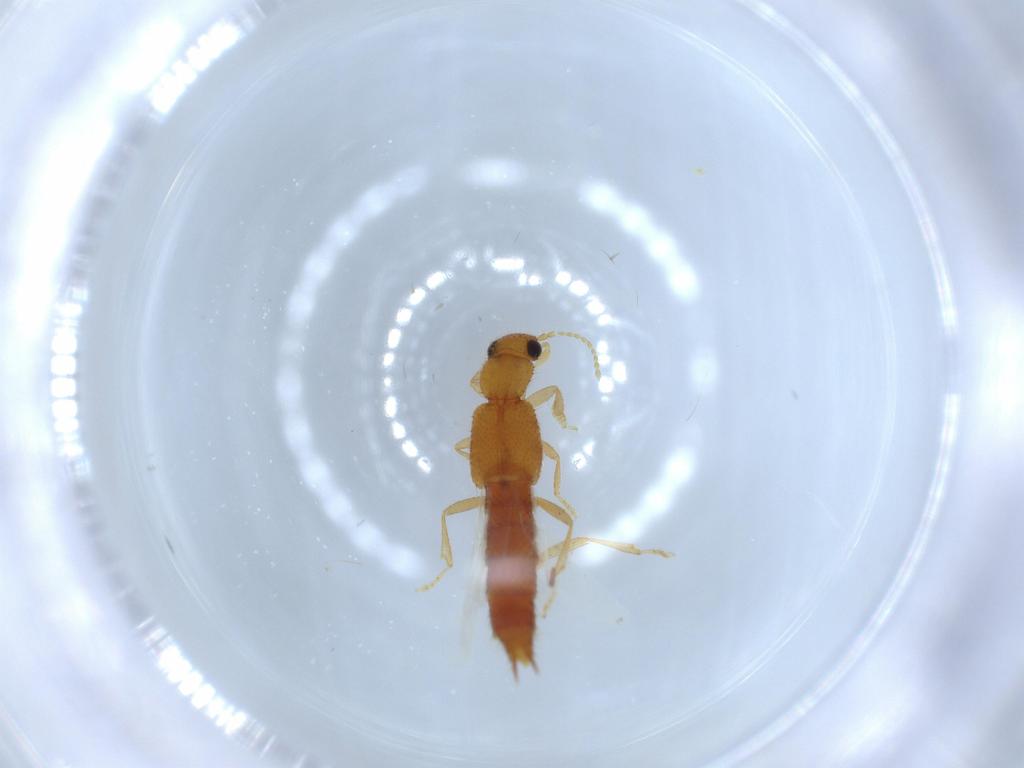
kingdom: Animalia
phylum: Arthropoda
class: Insecta
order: Coleoptera
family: Staphylinidae
